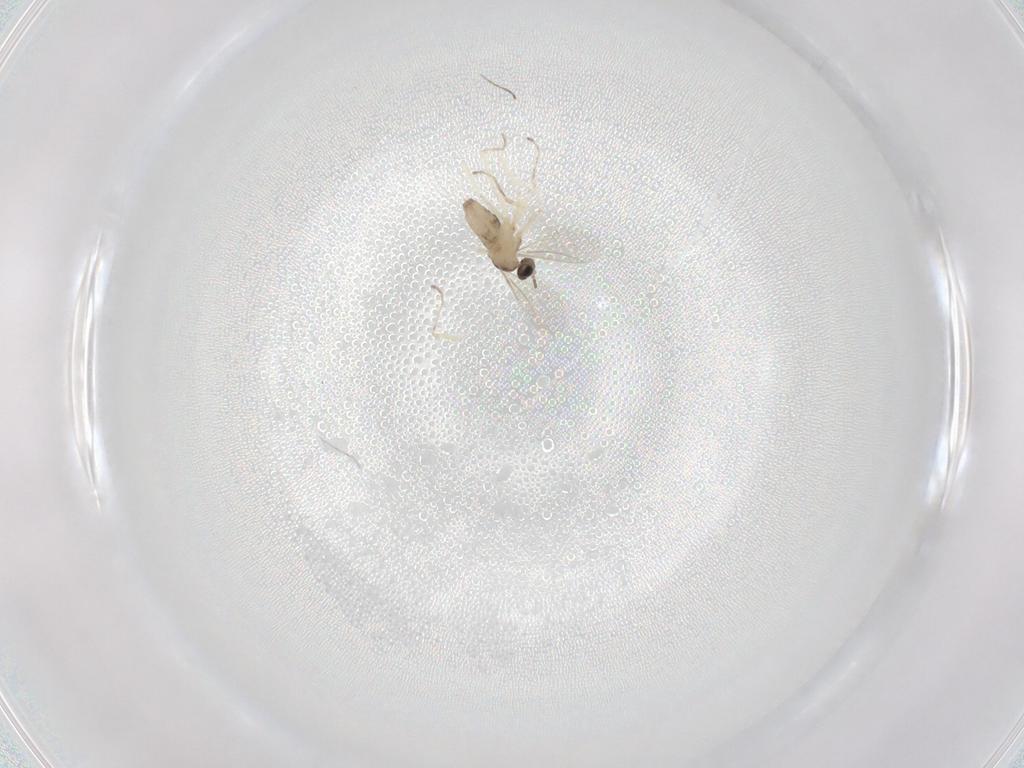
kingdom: Animalia
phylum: Arthropoda
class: Insecta
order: Diptera
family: Cecidomyiidae
